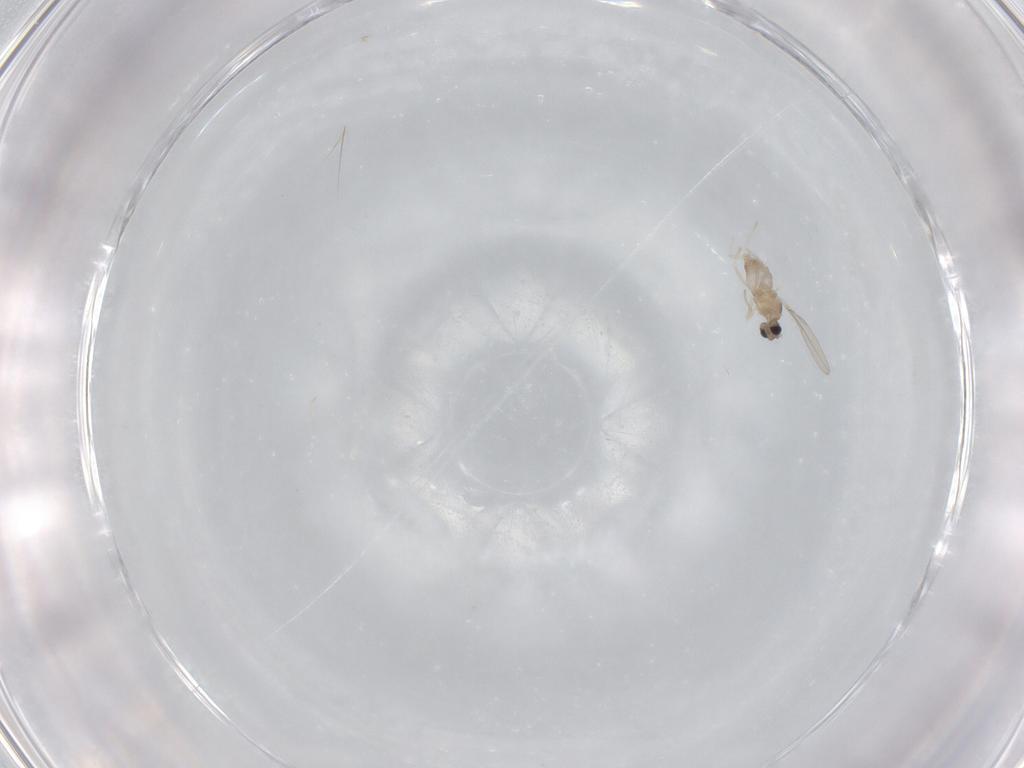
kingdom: Animalia
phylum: Arthropoda
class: Insecta
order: Diptera
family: Cecidomyiidae
